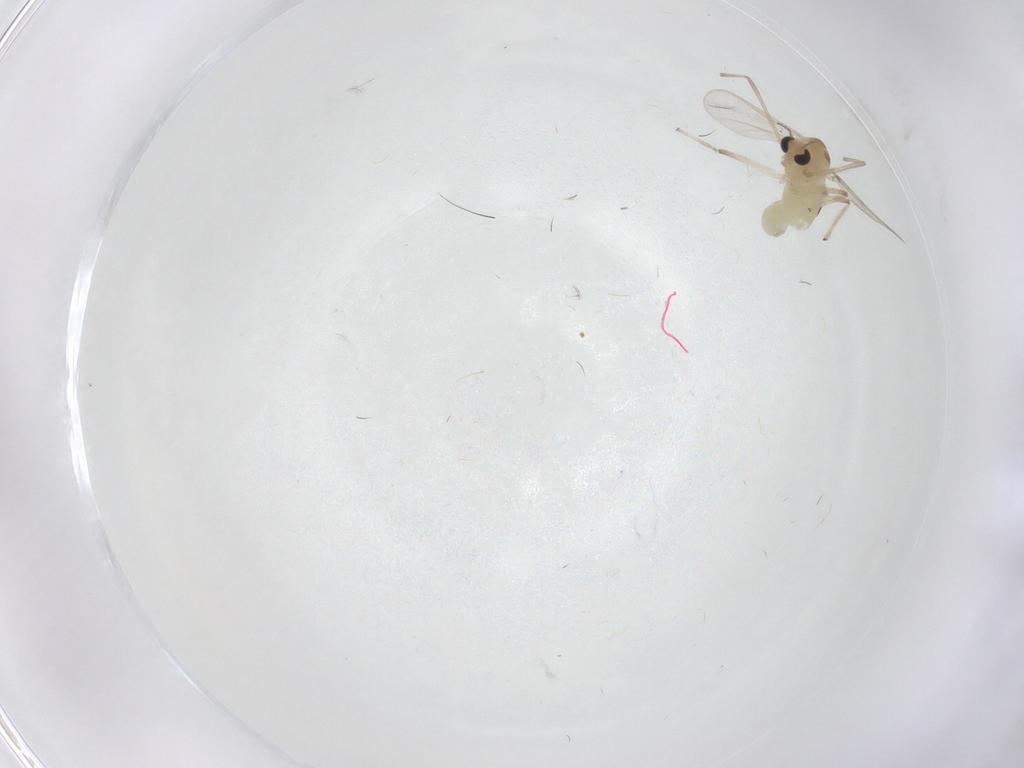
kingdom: Animalia
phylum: Arthropoda
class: Insecta
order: Diptera
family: Chironomidae
